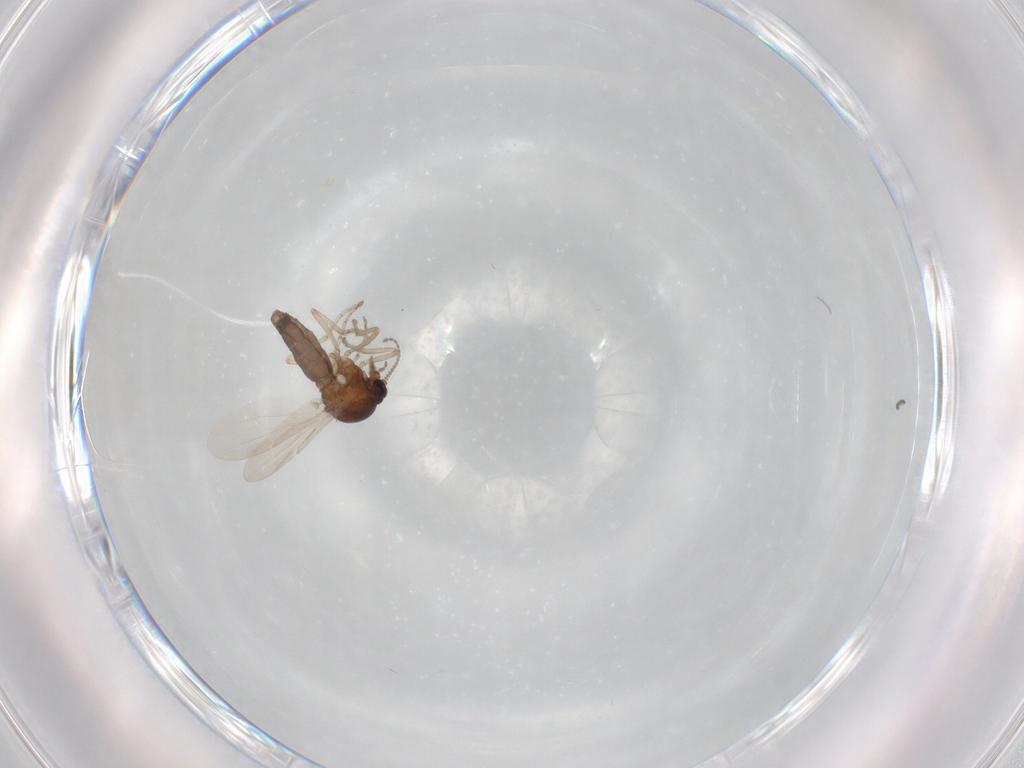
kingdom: Animalia
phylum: Arthropoda
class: Insecta
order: Diptera
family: Ceratopogonidae
